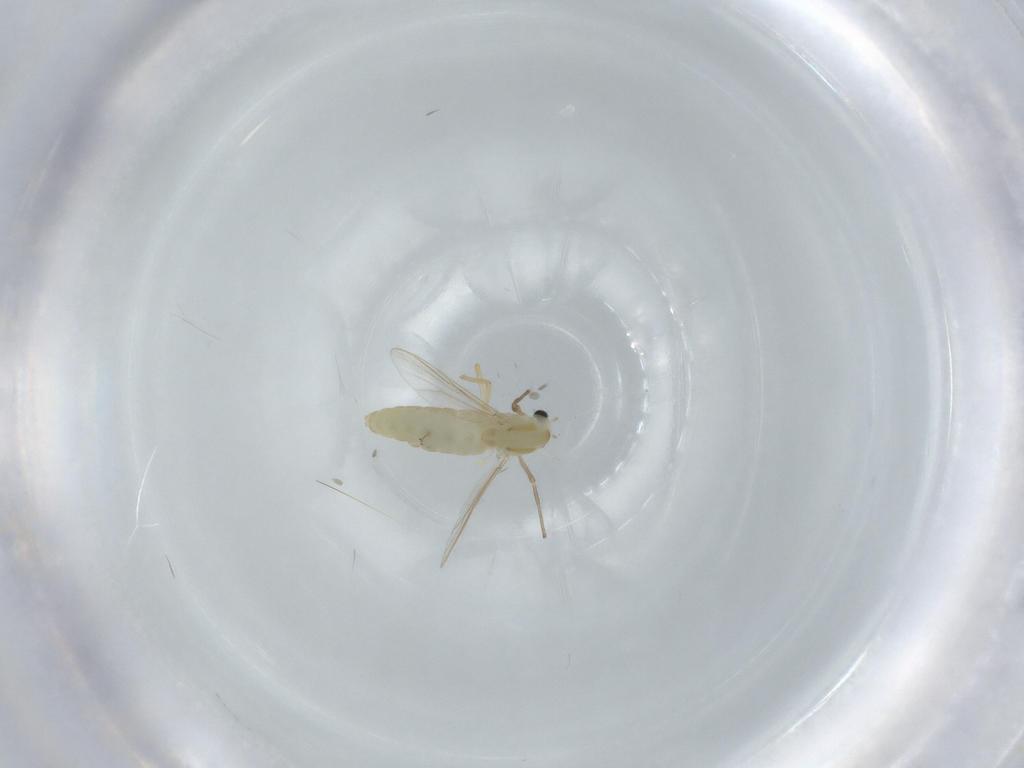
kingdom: Animalia
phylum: Arthropoda
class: Insecta
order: Diptera
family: Chironomidae
